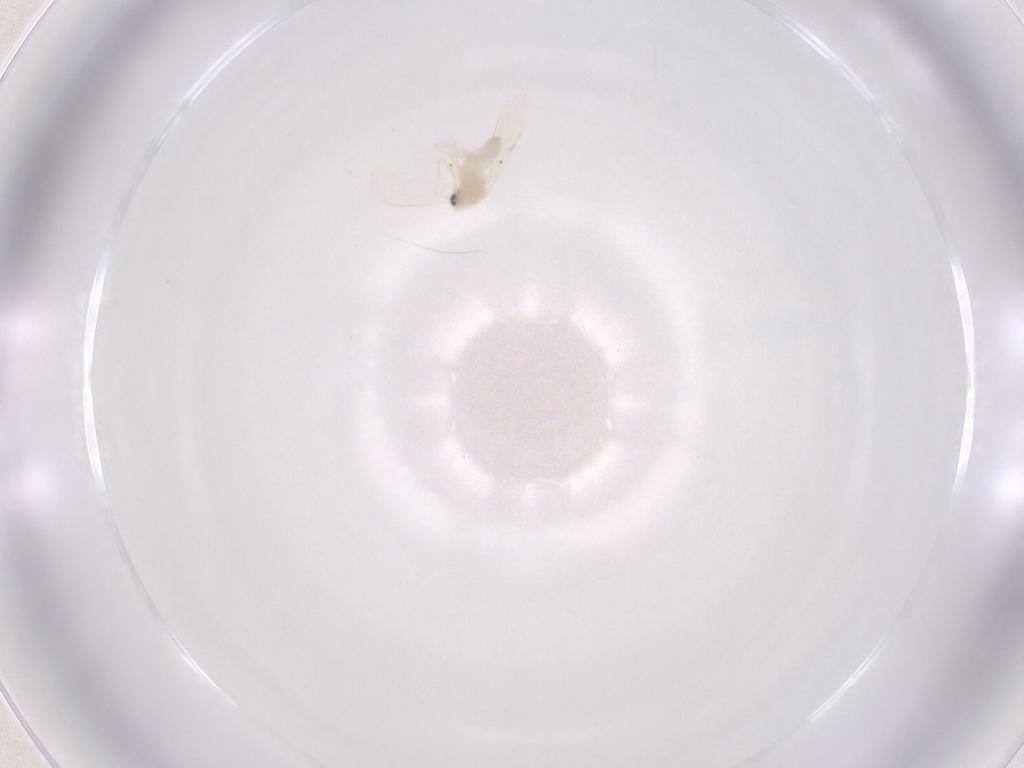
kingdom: Animalia
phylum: Arthropoda
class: Insecta
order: Hemiptera
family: Aleyrodidae
